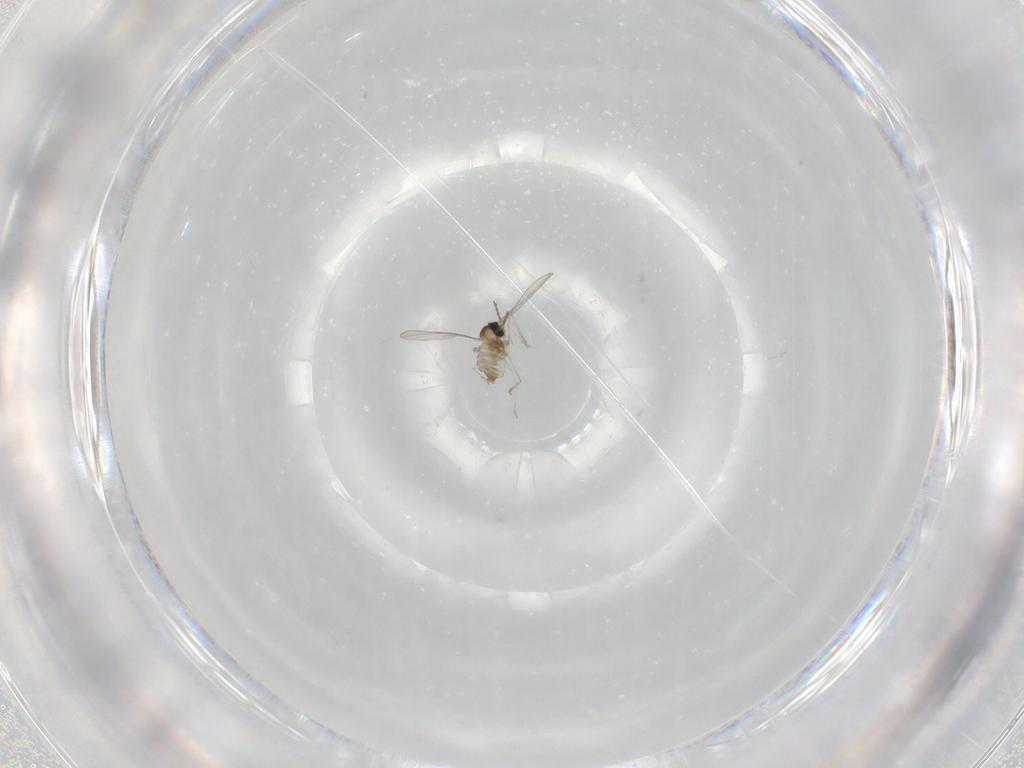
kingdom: Animalia
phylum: Arthropoda
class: Insecta
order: Diptera
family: Cecidomyiidae
